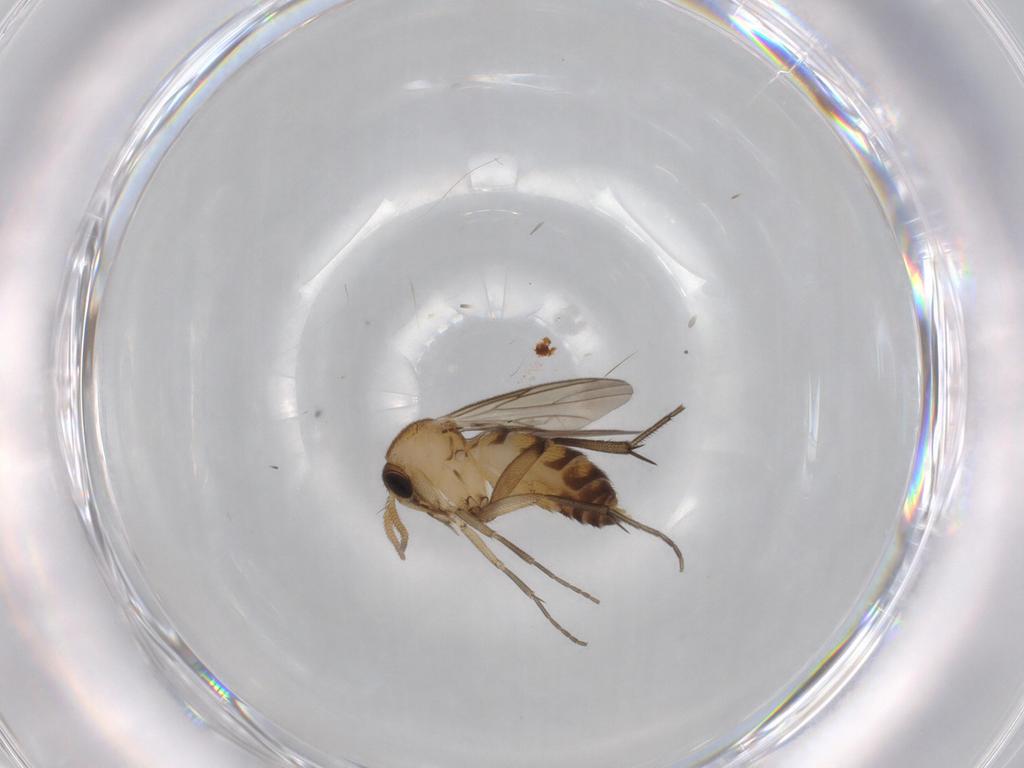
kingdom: Animalia
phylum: Arthropoda
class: Insecta
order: Diptera
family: Mycetophilidae
